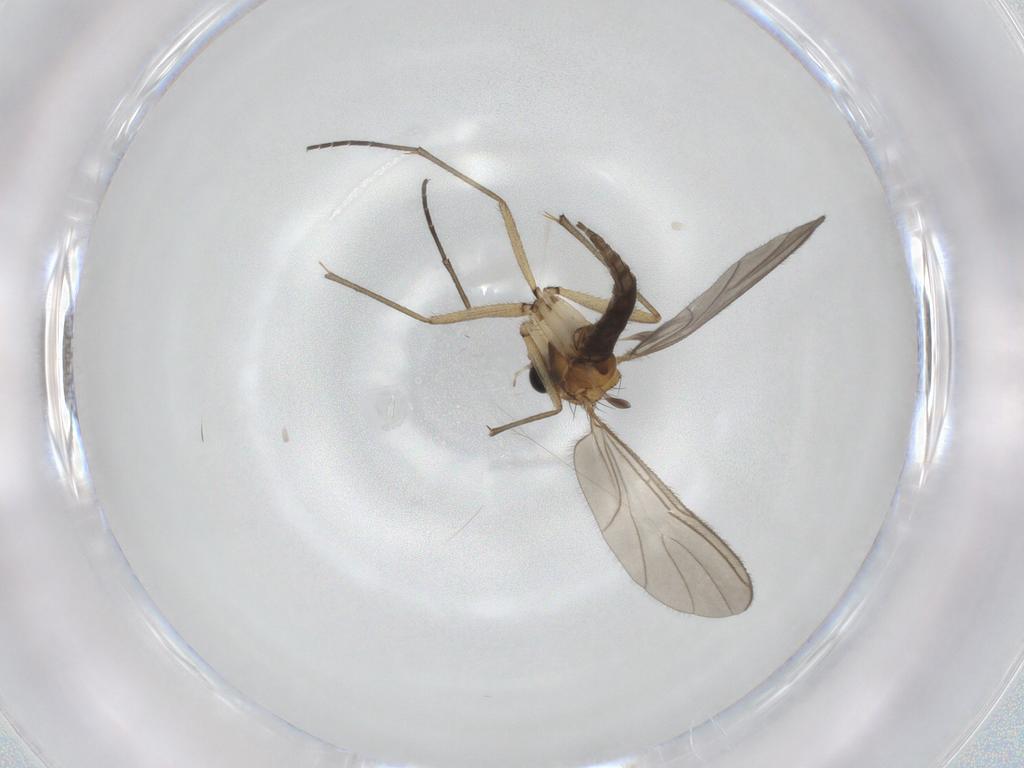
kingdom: Animalia
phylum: Arthropoda
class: Insecta
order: Diptera
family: Sciaridae
